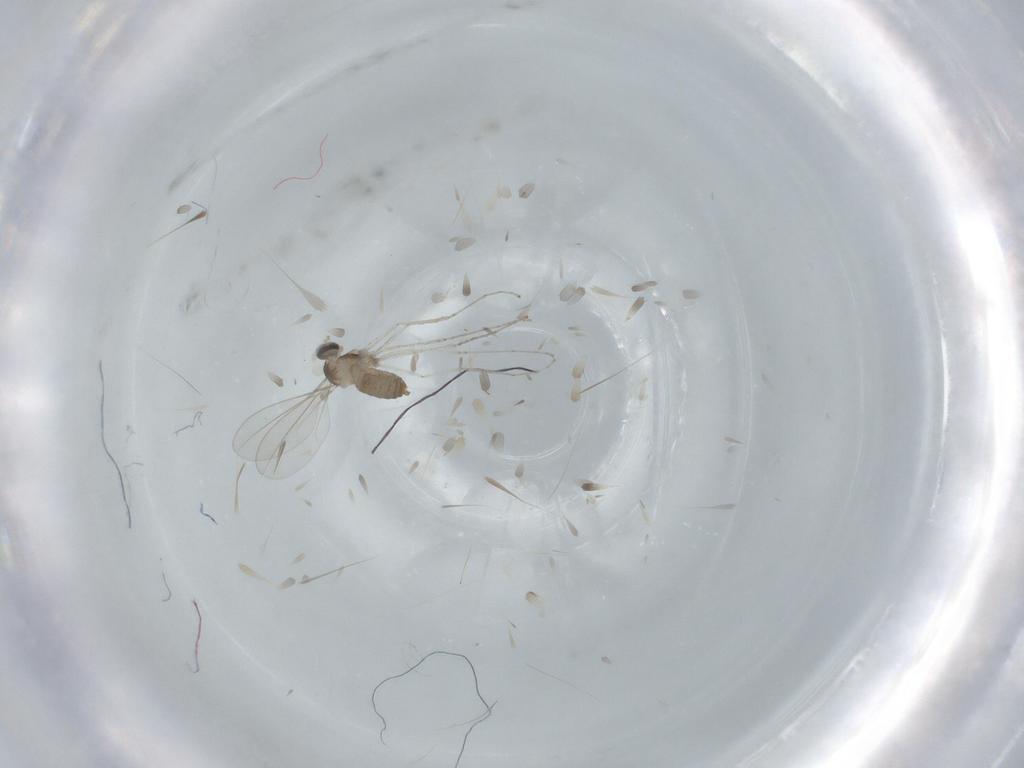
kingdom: Animalia
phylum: Arthropoda
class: Insecta
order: Diptera
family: Cecidomyiidae
